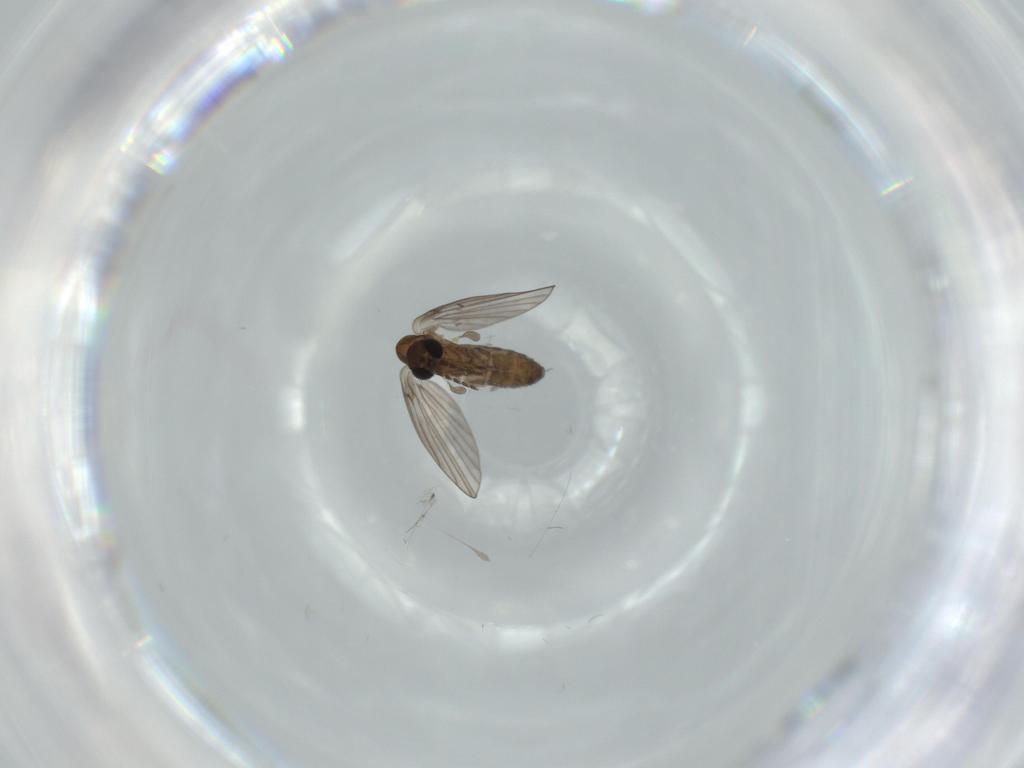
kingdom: Animalia
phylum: Arthropoda
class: Insecta
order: Diptera
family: Psychodidae
